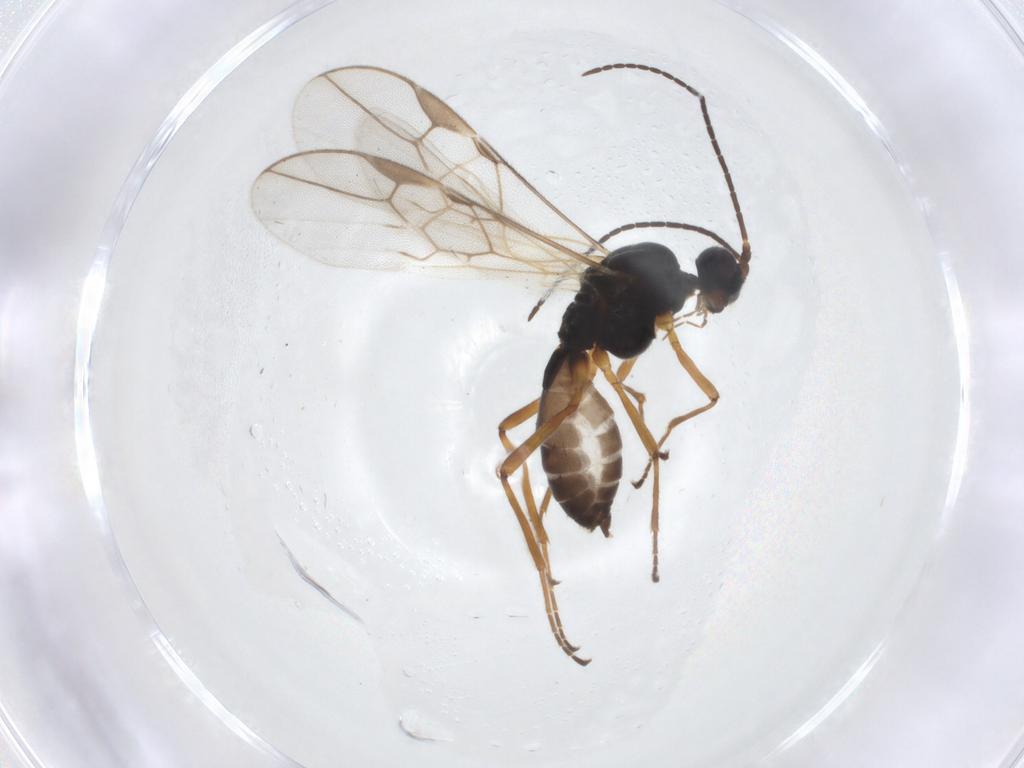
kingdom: Animalia
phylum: Arthropoda
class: Insecta
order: Hymenoptera
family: Braconidae
